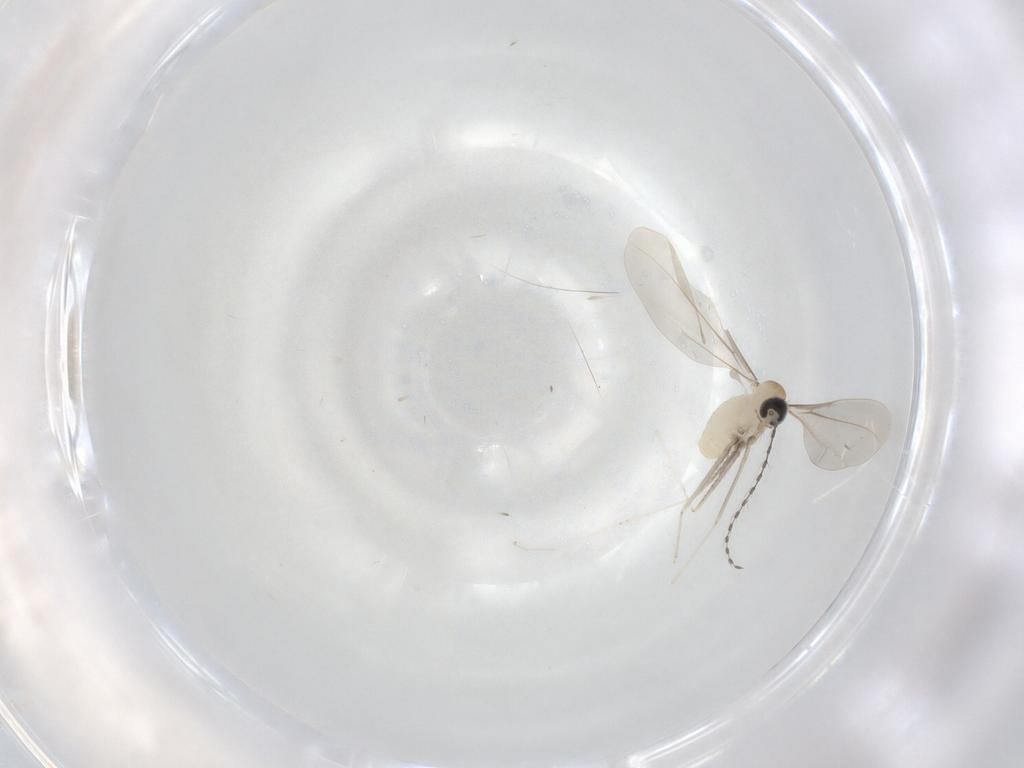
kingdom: Animalia
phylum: Arthropoda
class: Insecta
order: Diptera
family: Cecidomyiidae
